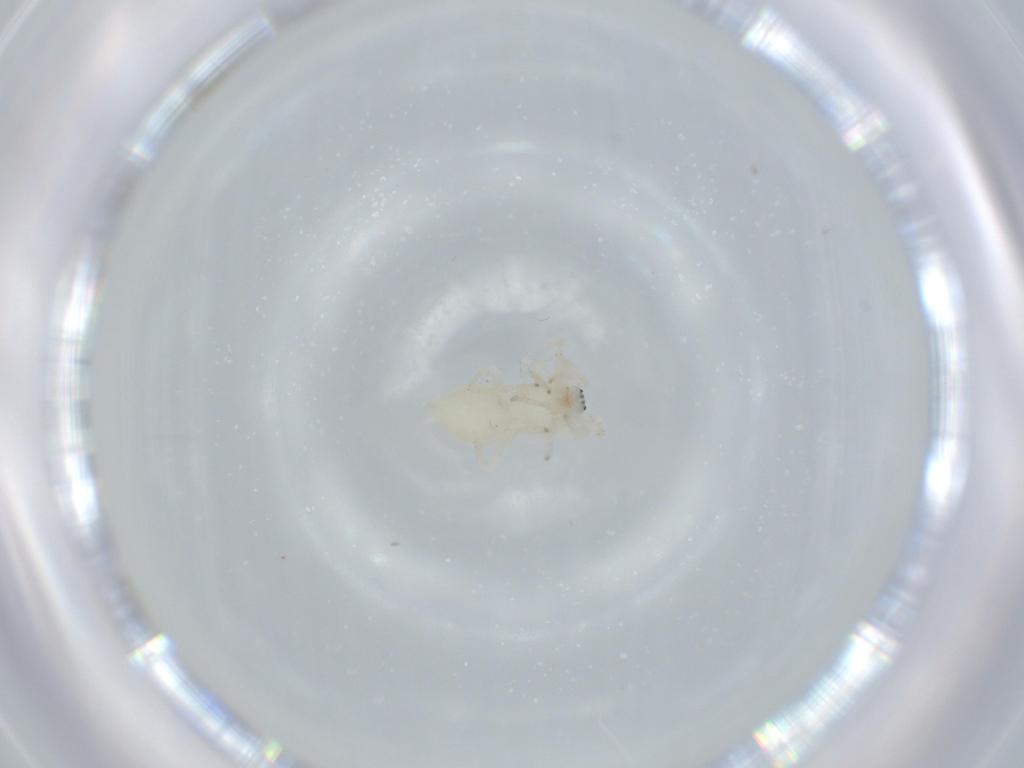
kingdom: Animalia
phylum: Arthropoda
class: Arachnida
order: Araneae
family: Anyphaenidae
